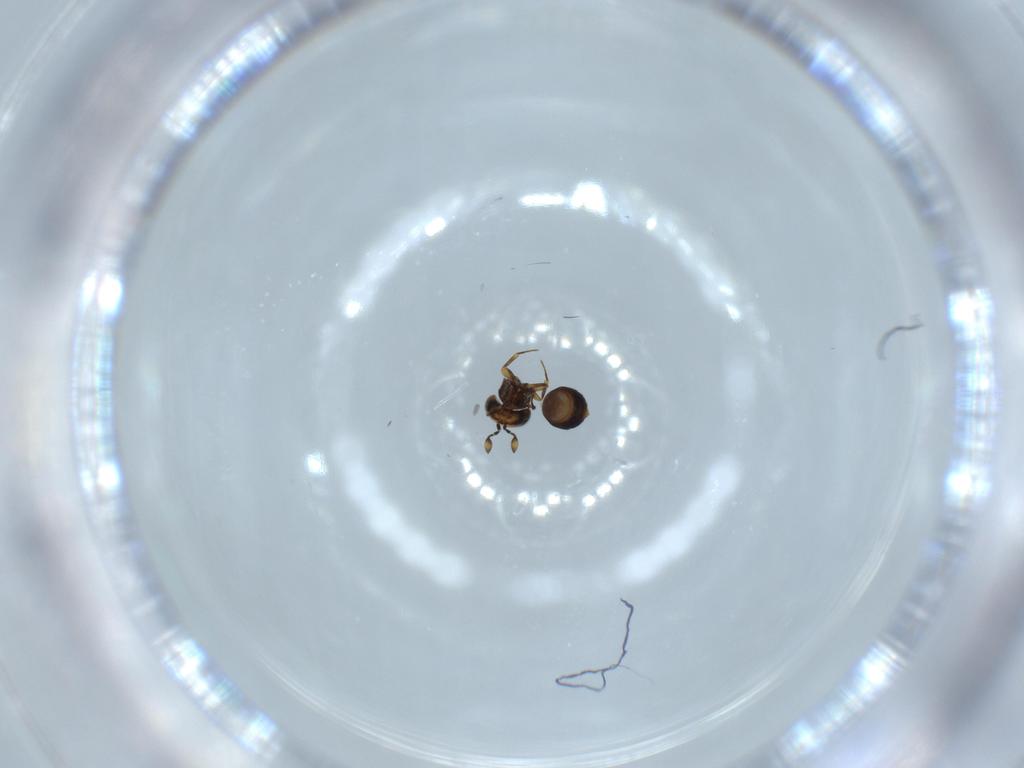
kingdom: Animalia
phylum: Arthropoda
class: Insecta
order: Hymenoptera
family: Scelionidae
